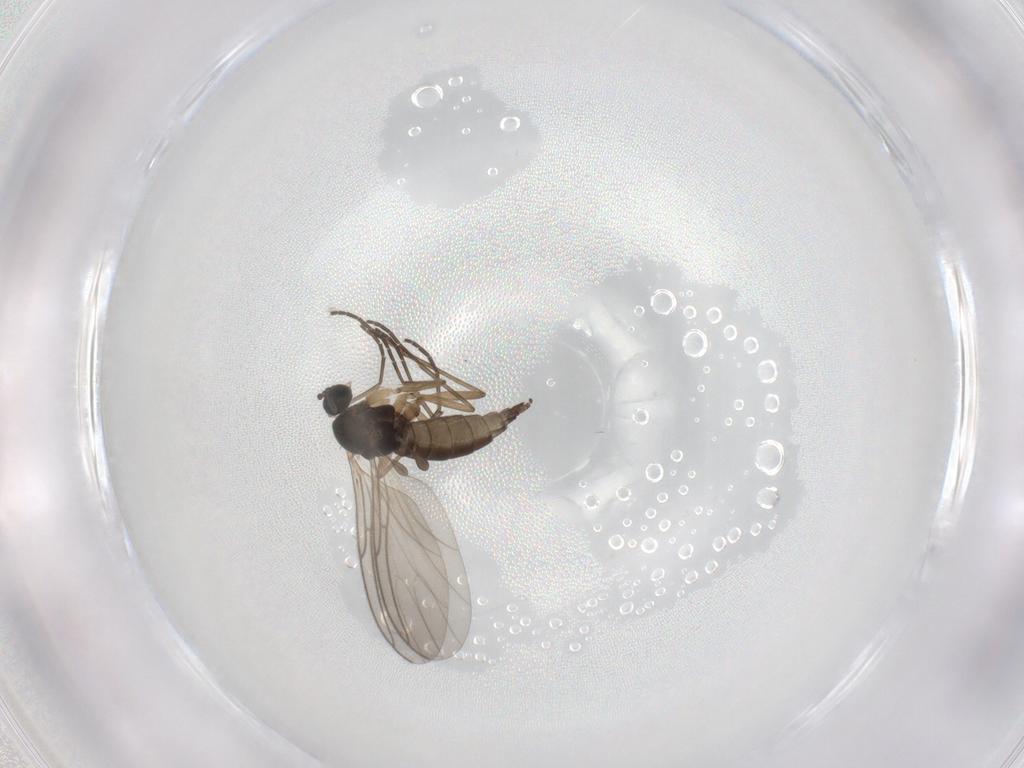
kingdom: Animalia
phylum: Arthropoda
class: Insecta
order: Diptera
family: Sciaridae
